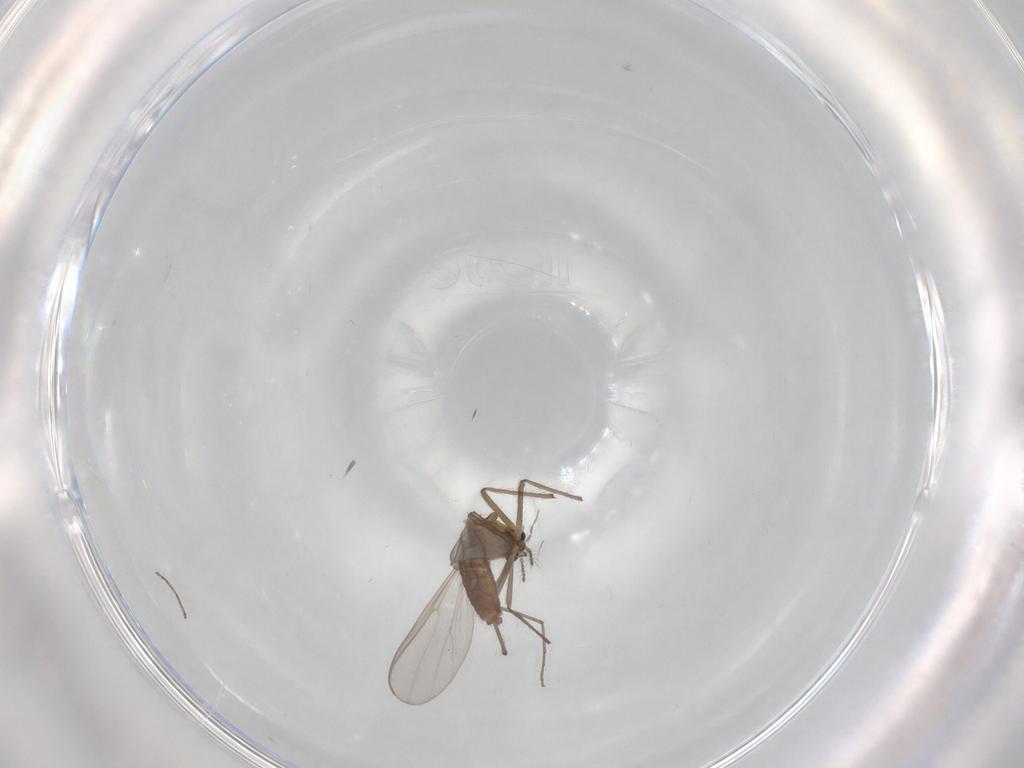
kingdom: Animalia
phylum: Arthropoda
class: Insecta
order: Diptera
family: Chironomidae
